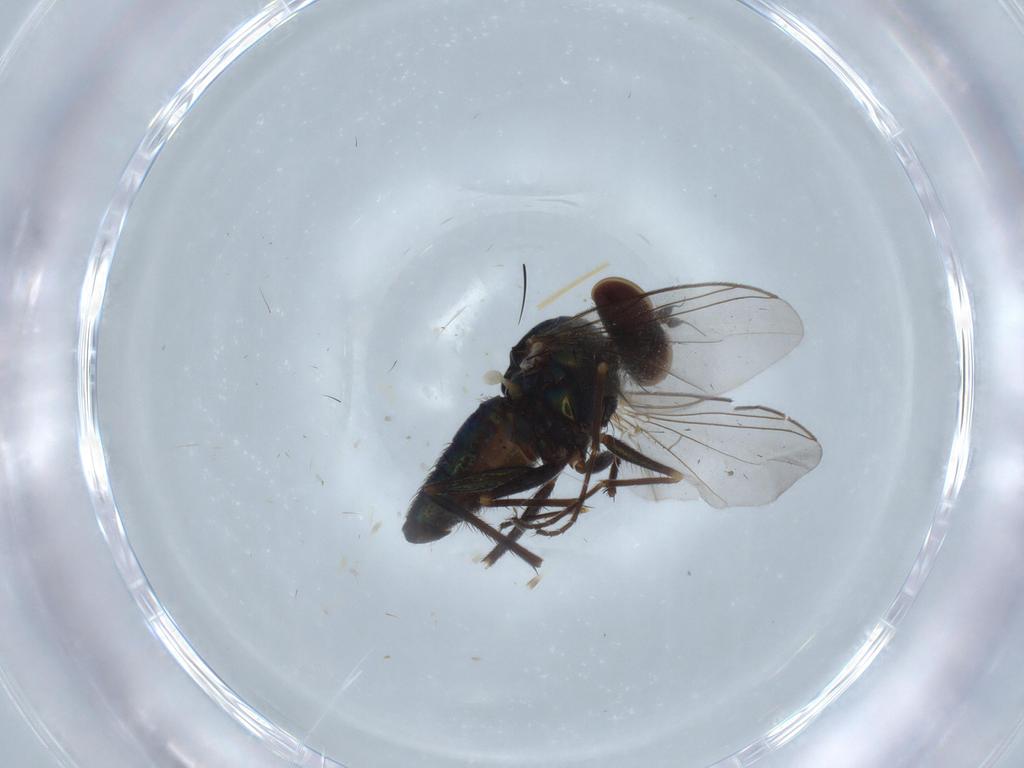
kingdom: Animalia
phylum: Arthropoda
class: Insecta
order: Diptera
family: Dolichopodidae
